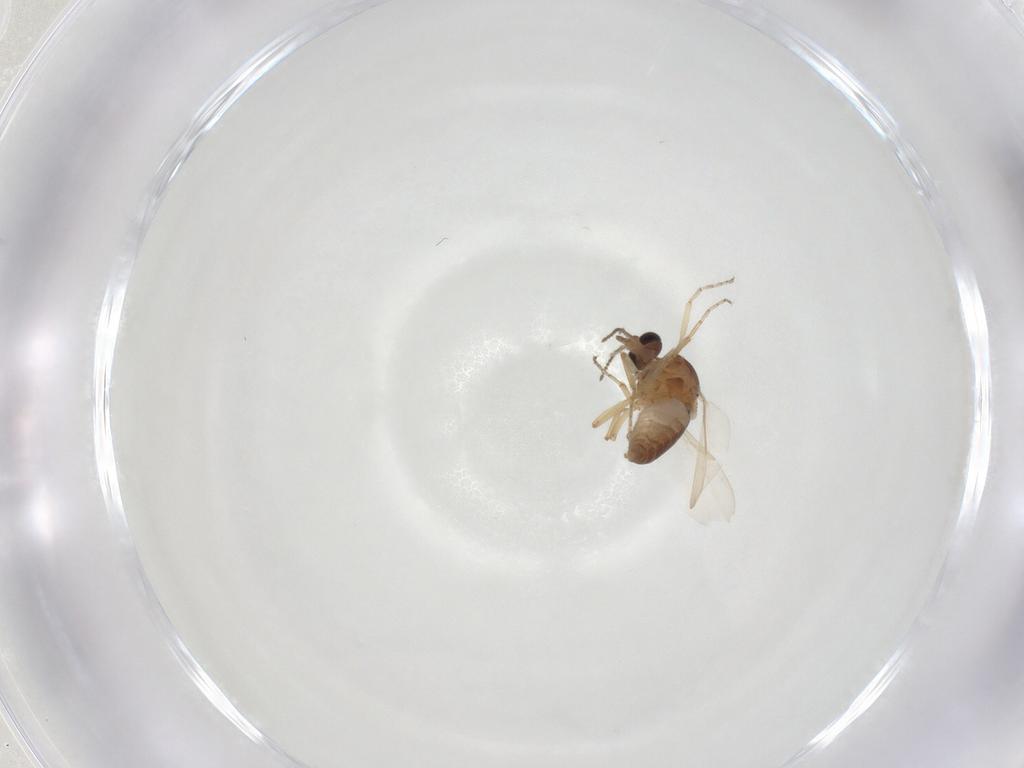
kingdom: Animalia
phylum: Arthropoda
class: Insecta
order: Diptera
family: Ceratopogonidae
